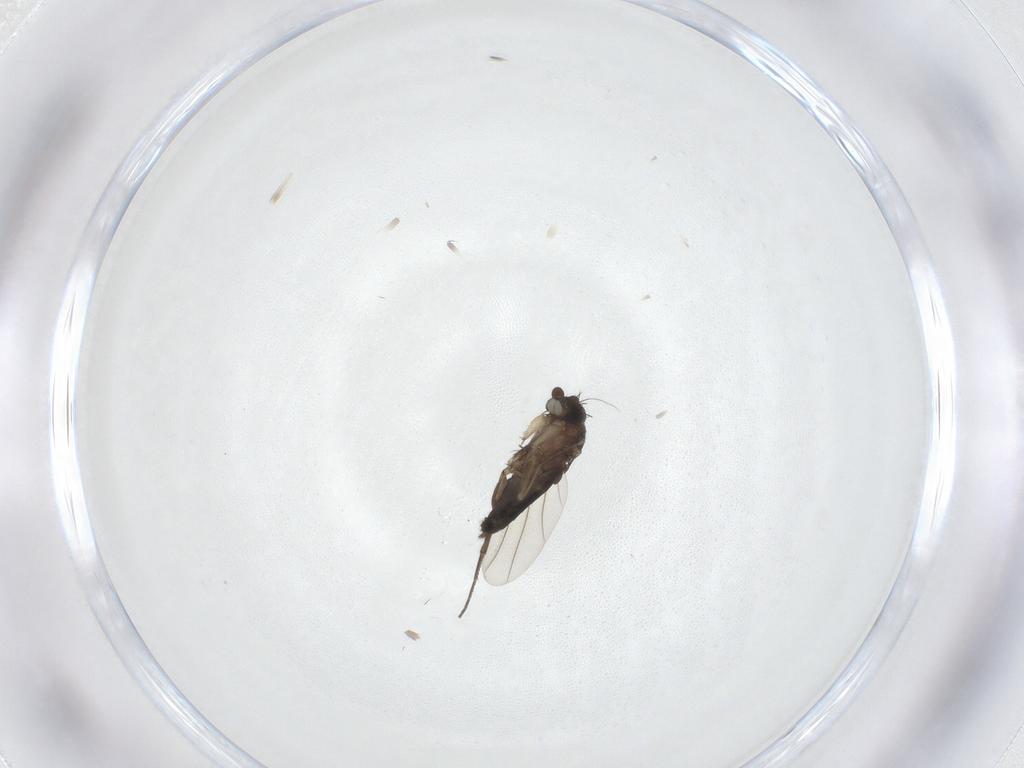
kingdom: Animalia
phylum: Arthropoda
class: Insecta
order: Diptera
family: Phoridae
